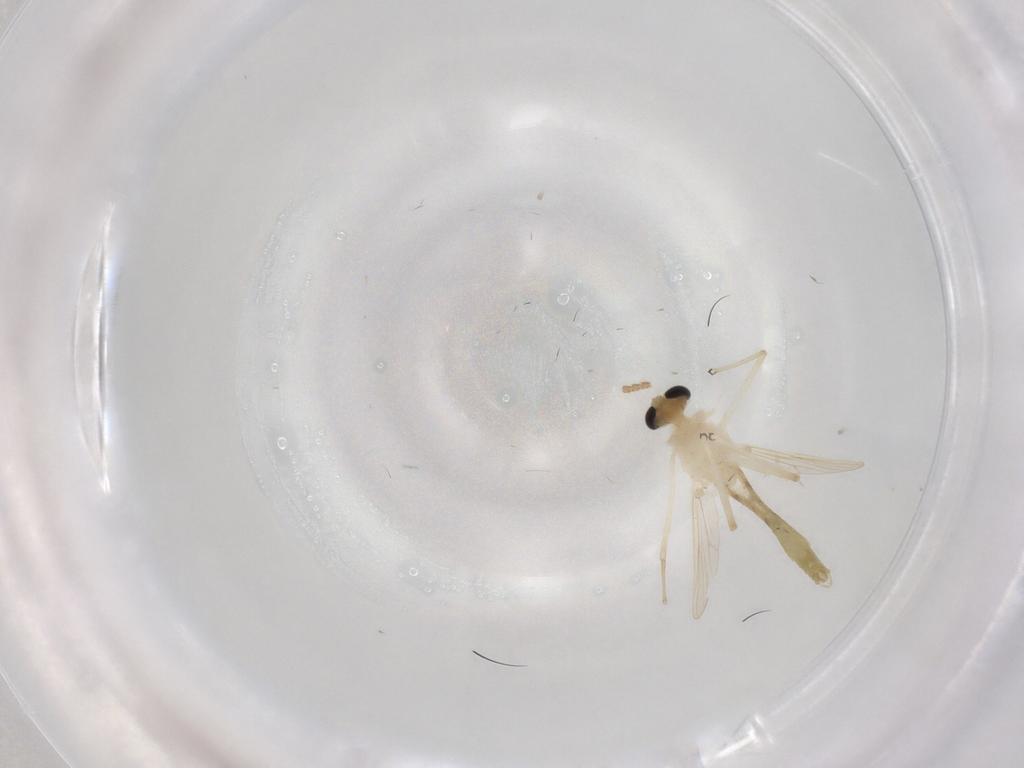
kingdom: Animalia
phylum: Arthropoda
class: Insecta
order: Diptera
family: Chironomidae
